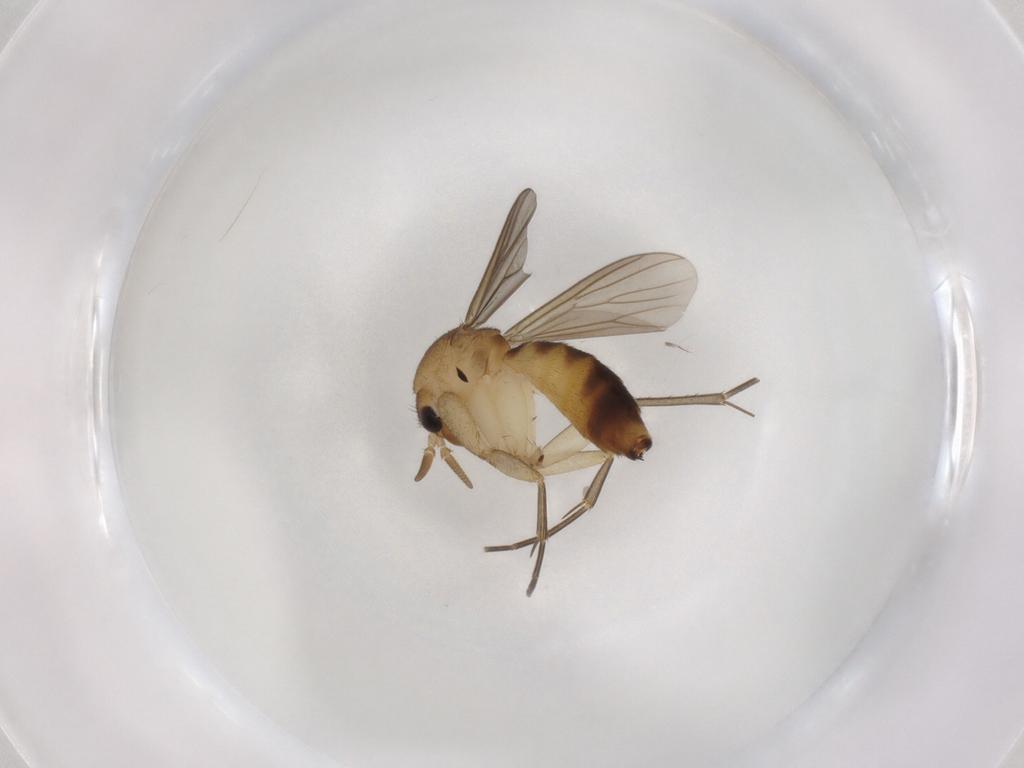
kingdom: Animalia
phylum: Arthropoda
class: Insecta
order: Diptera
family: Mycetophilidae
